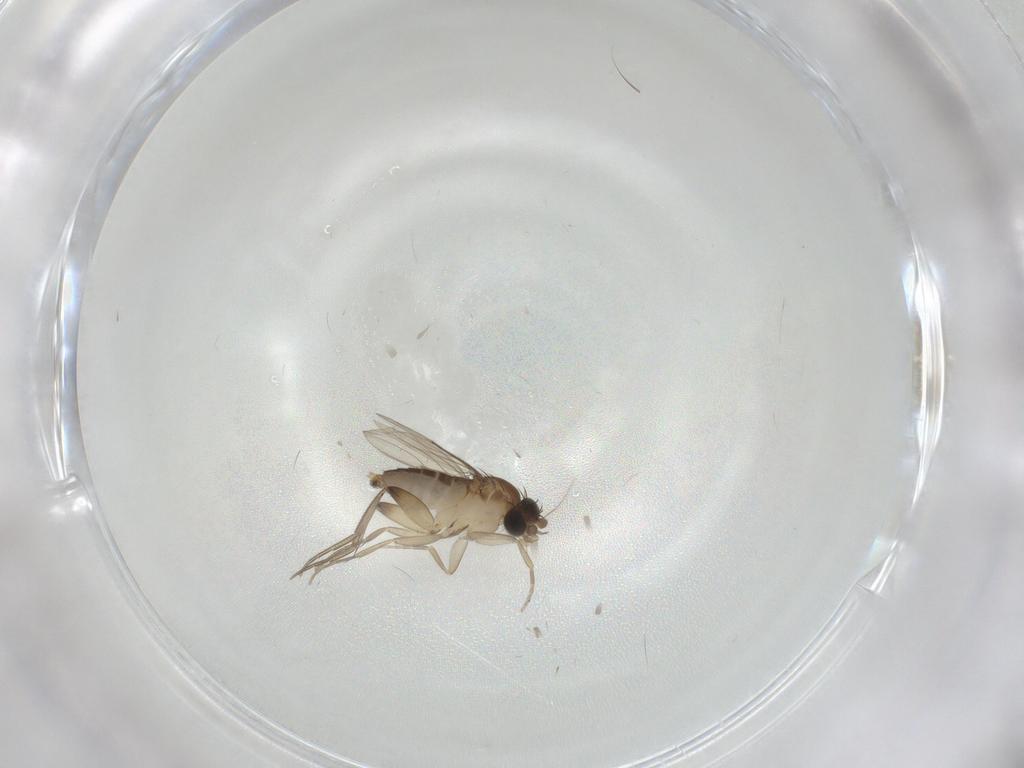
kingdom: Animalia
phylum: Arthropoda
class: Insecta
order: Diptera
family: Phoridae
